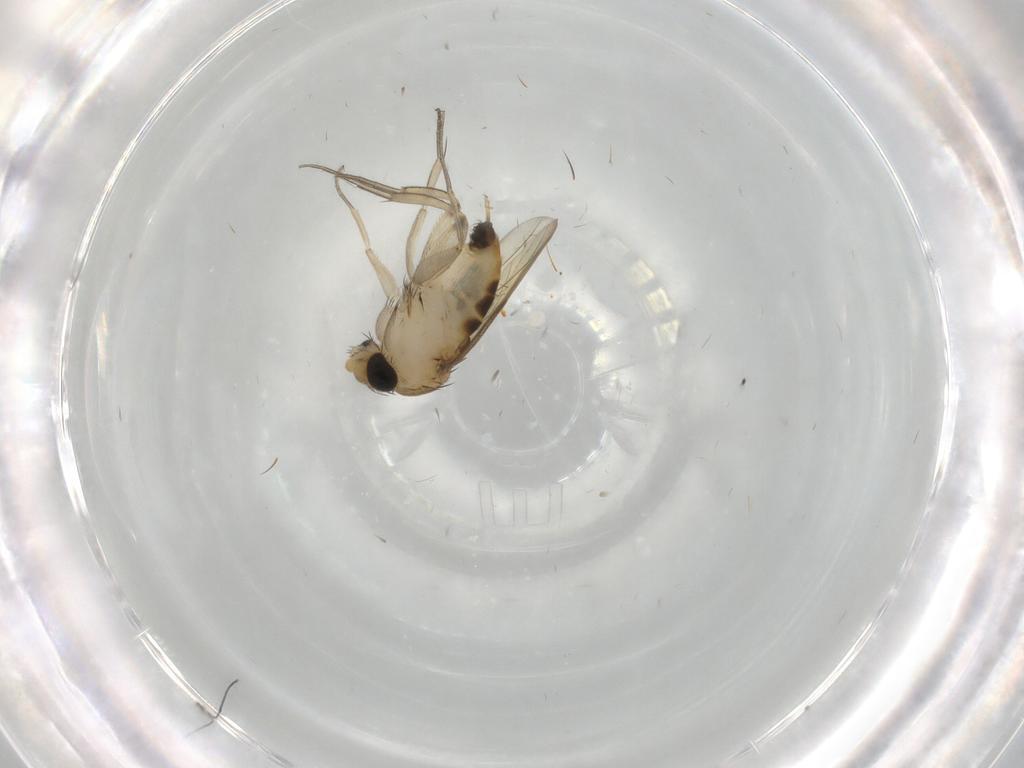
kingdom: Animalia
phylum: Arthropoda
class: Insecta
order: Diptera
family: Phoridae
